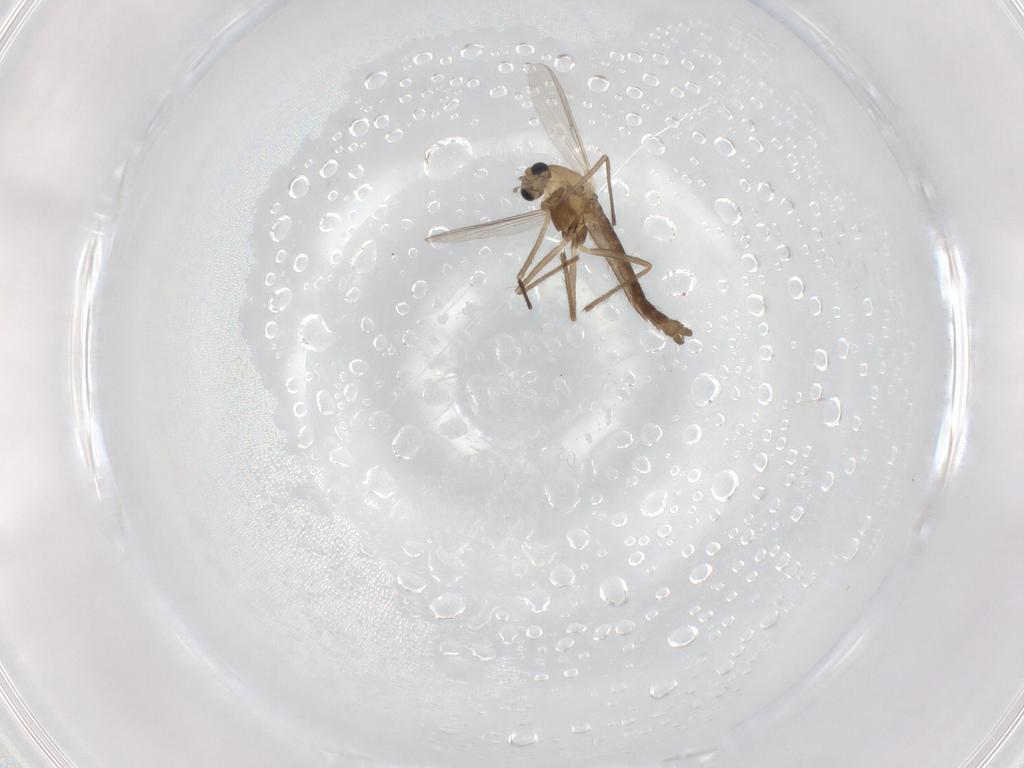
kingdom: Animalia
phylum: Arthropoda
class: Insecta
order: Diptera
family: Chironomidae
